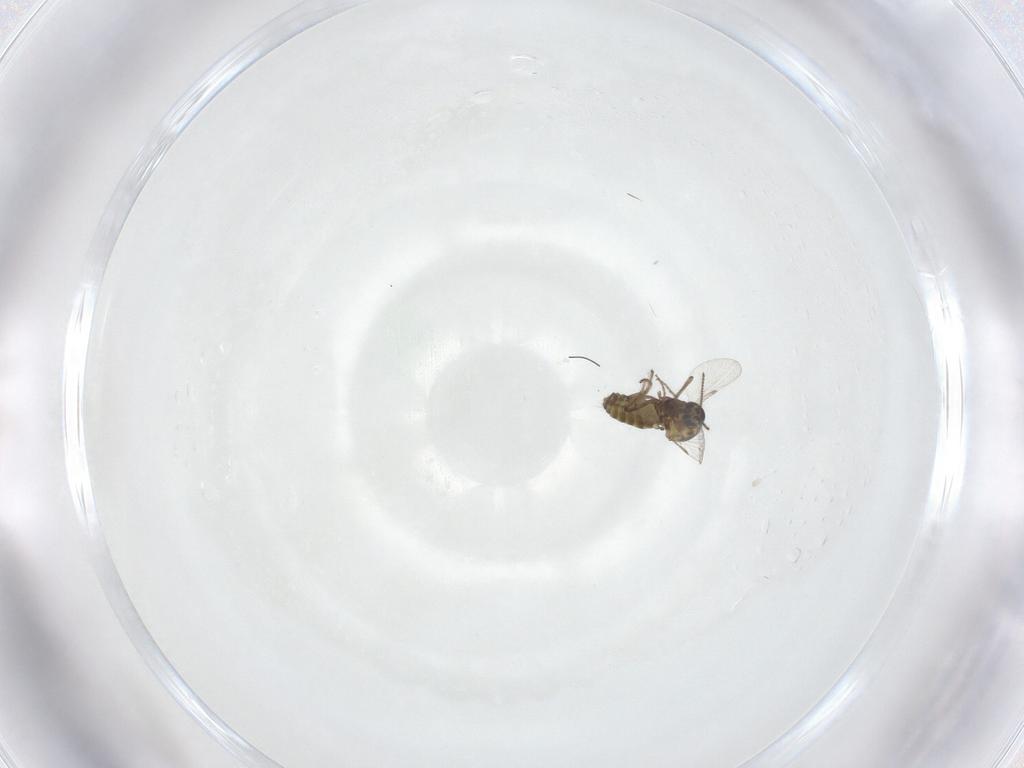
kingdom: Animalia
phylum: Arthropoda
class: Insecta
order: Diptera
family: Ceratopogonidae
